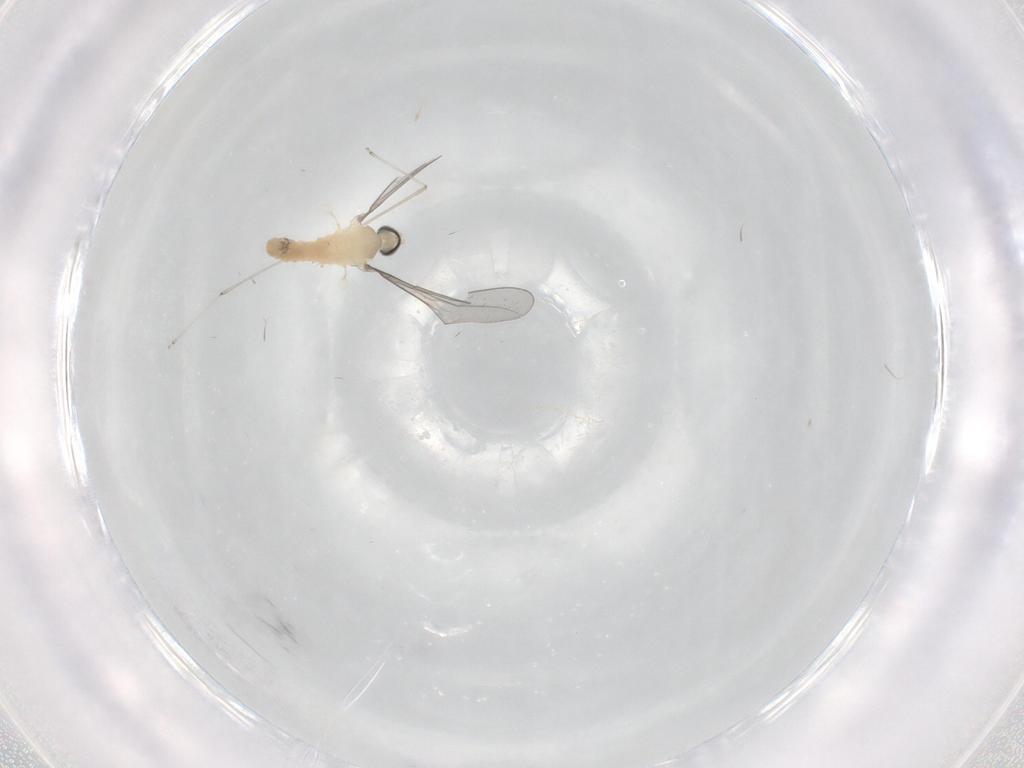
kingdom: Animalia
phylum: Arthropoda
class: Insecta
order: Diptera
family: Cecidomyiidae
